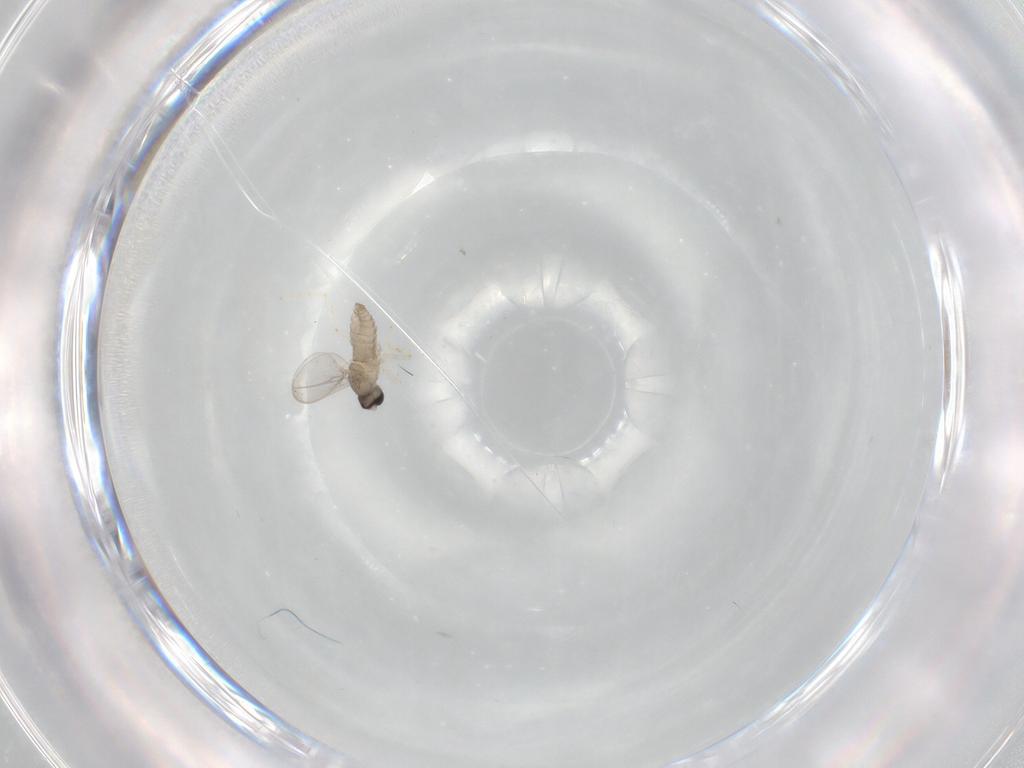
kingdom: Animalia
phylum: Arthropoda
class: Insecta
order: Diptera
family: Cecidomyiidae
